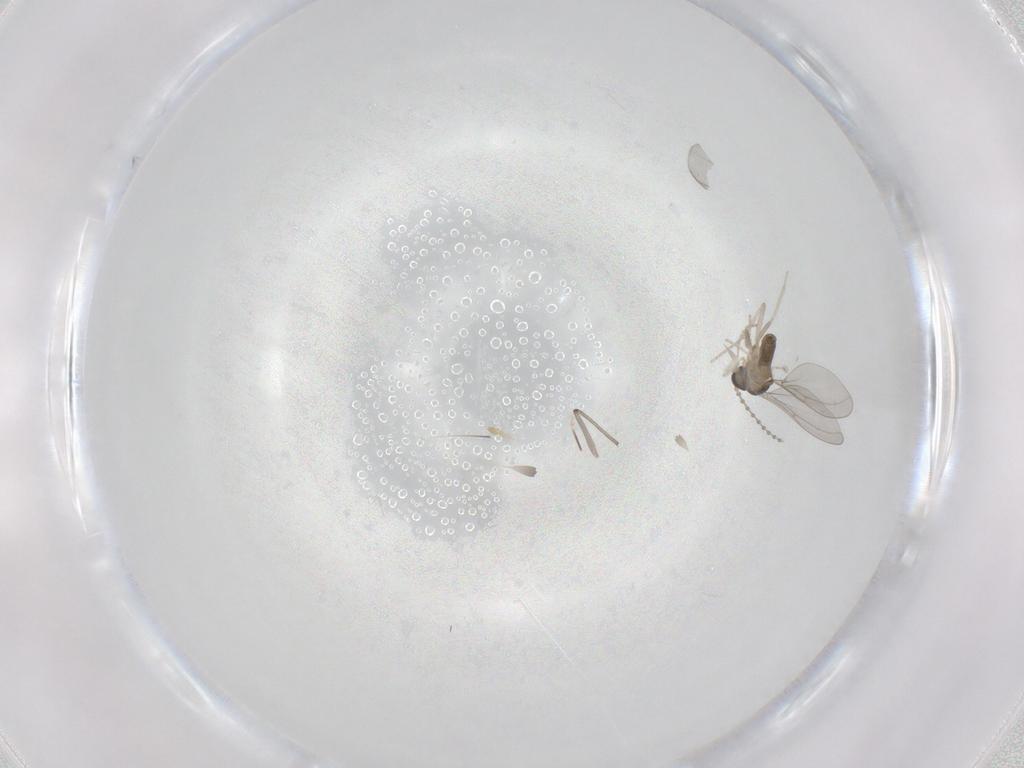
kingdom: Animalia
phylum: Arthropoda
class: Insecta
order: Diptera
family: Cecidomyiidae
